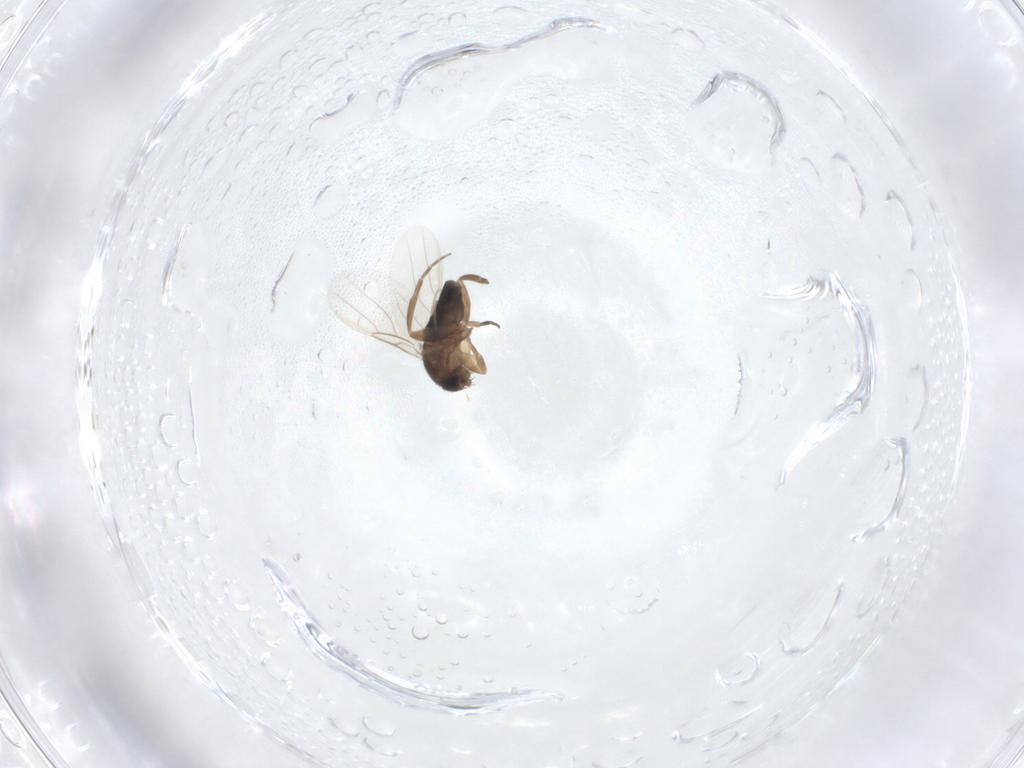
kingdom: Animalia
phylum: Arthropoda
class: Insecta
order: Diptera
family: Phoridae
